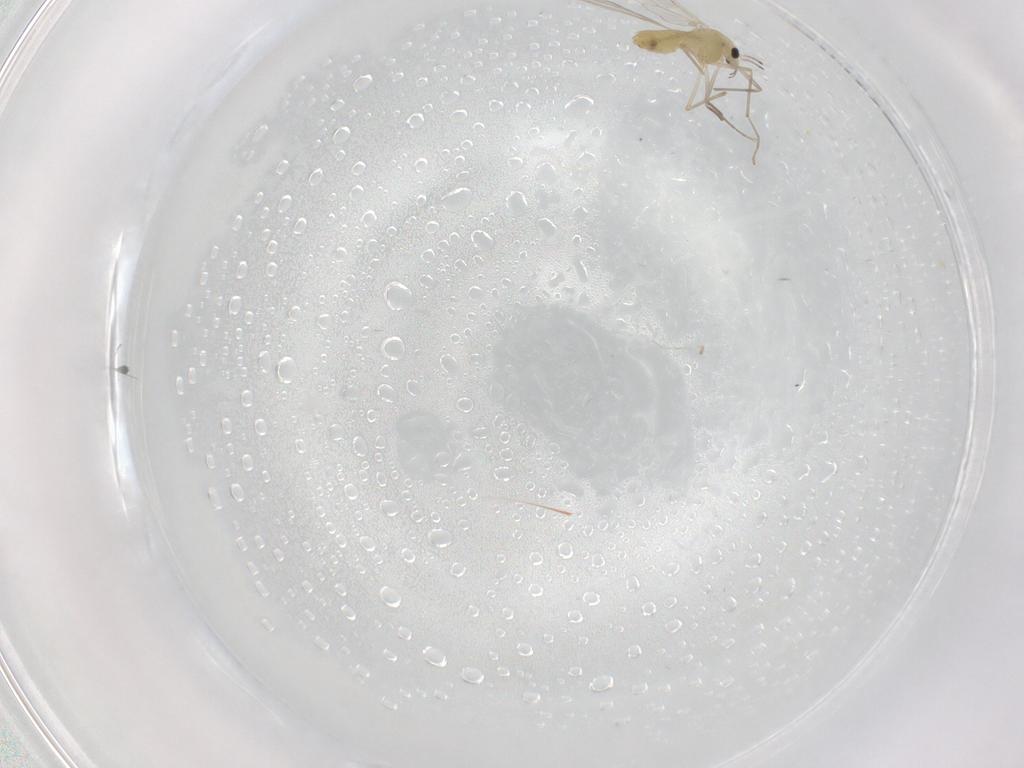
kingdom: Animalia
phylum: Arthropoda
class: Insecta
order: Diptera
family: Chironomidae
